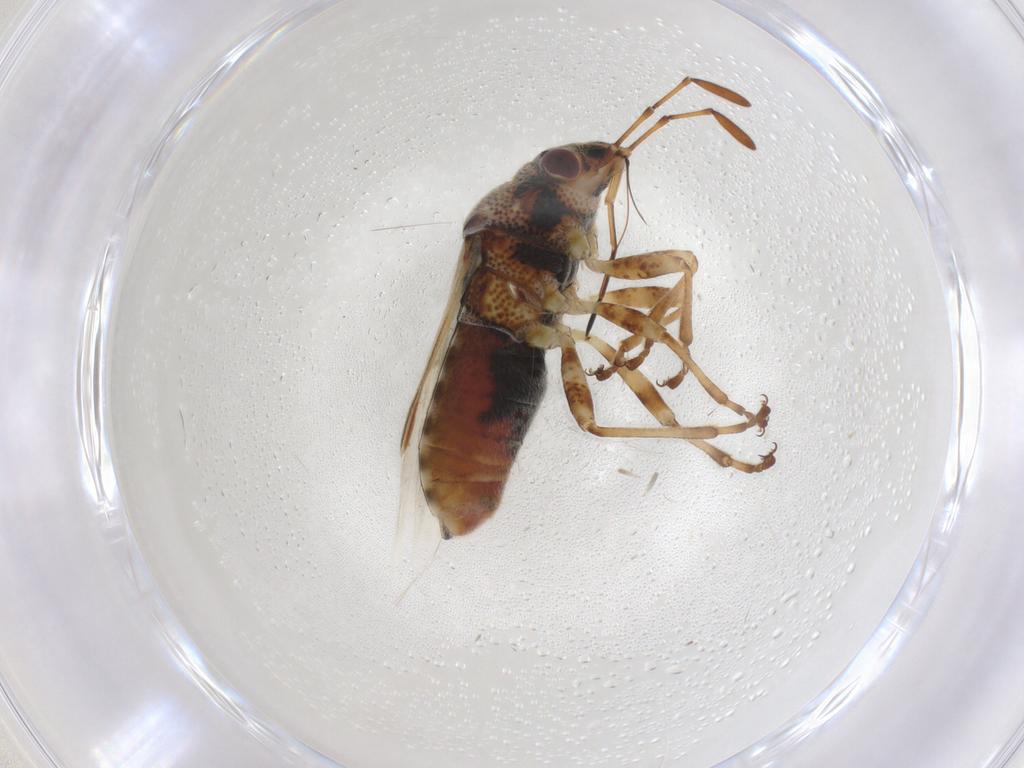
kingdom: Animalia
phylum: Arthropoda
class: Insecta
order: Hemiptera
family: Lygaeidae
